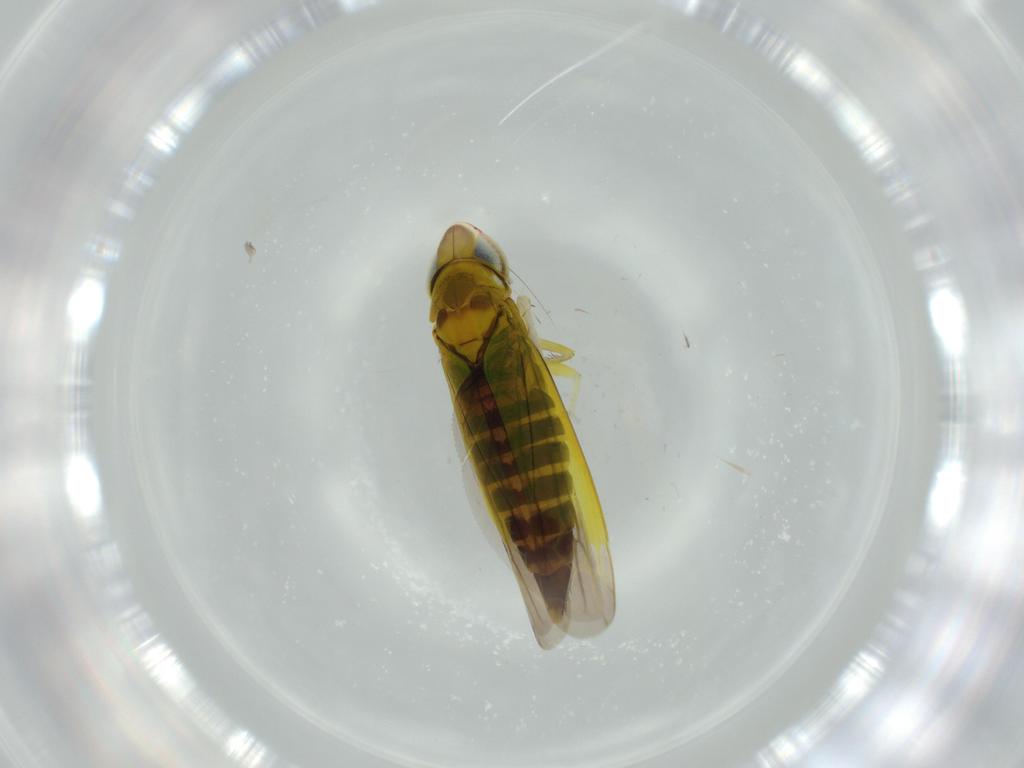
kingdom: Animalia
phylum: Arthropoda
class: Insecta
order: Hemiptera
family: Cicadellidae
